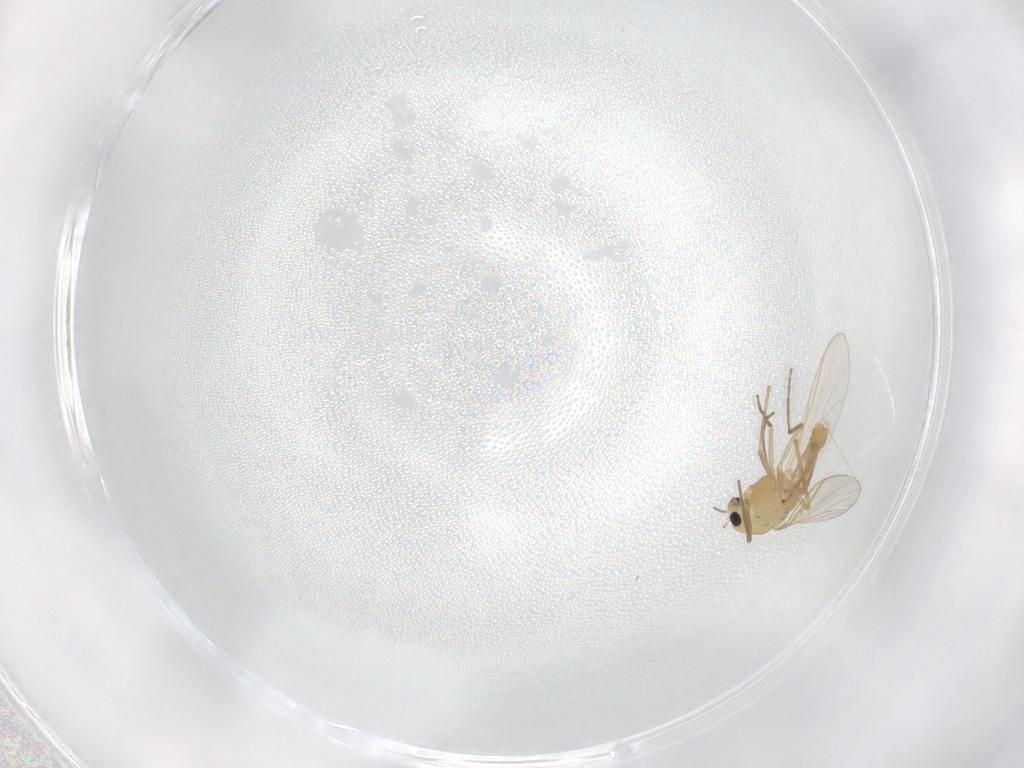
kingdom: Animalia
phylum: Arthropoda
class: Insecta
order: Diptera
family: Chironomidae
